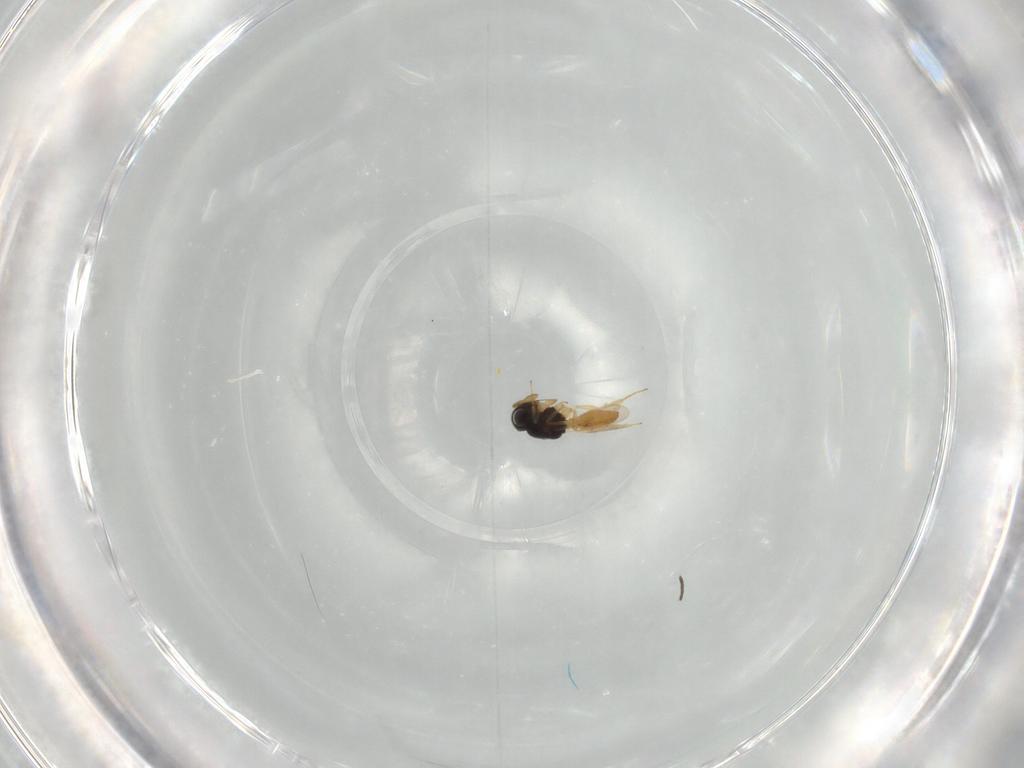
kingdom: Animalia
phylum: Arthropoda
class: Insecta
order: Hymenoptera
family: Scelionidae
